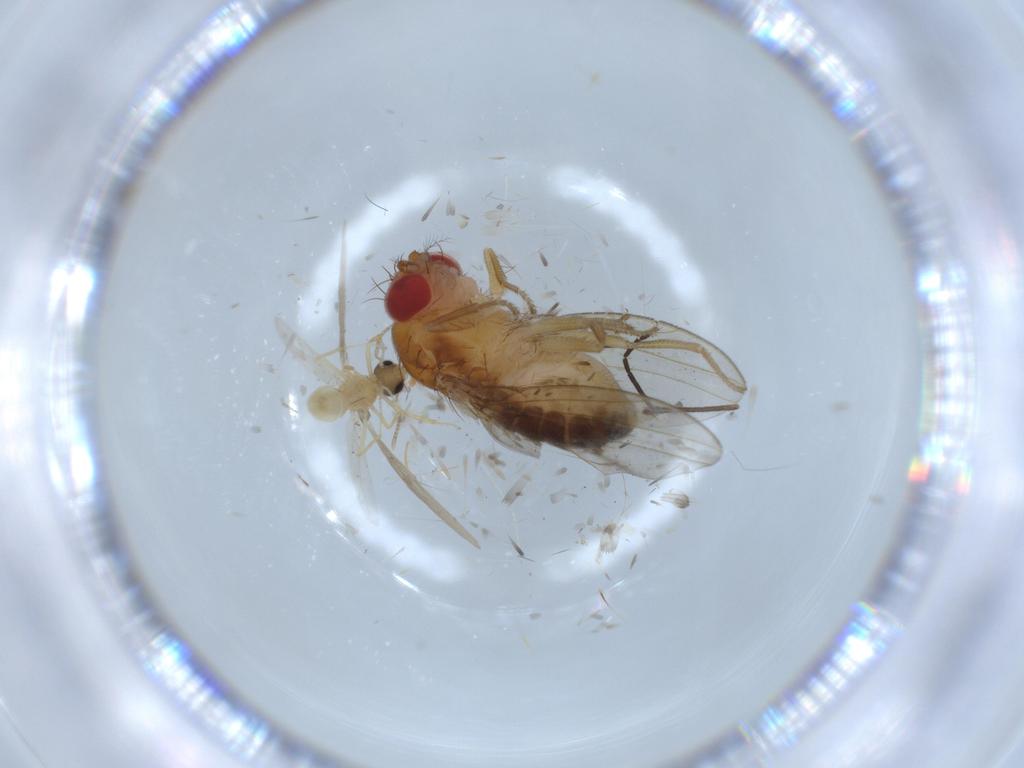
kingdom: Animalia
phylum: Arthropoda
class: Insecta
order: Diptera
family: Drosophilidae
